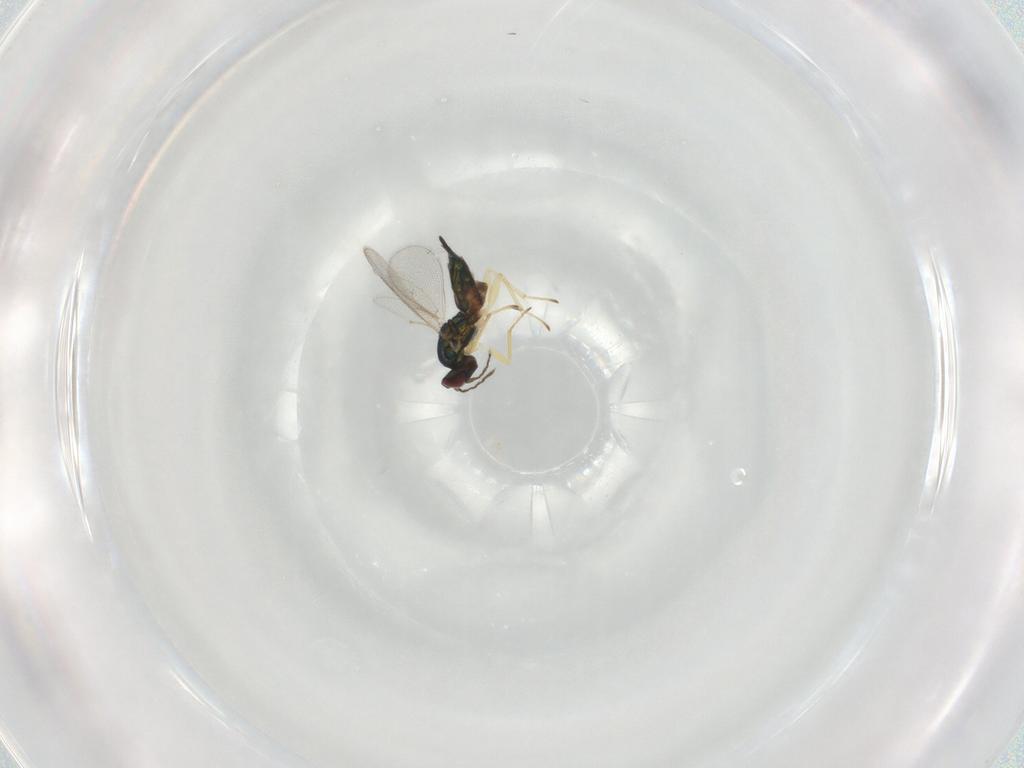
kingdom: Animalia
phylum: Arthropoda
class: Insecta
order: Hymenoptera
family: Eulophidae
